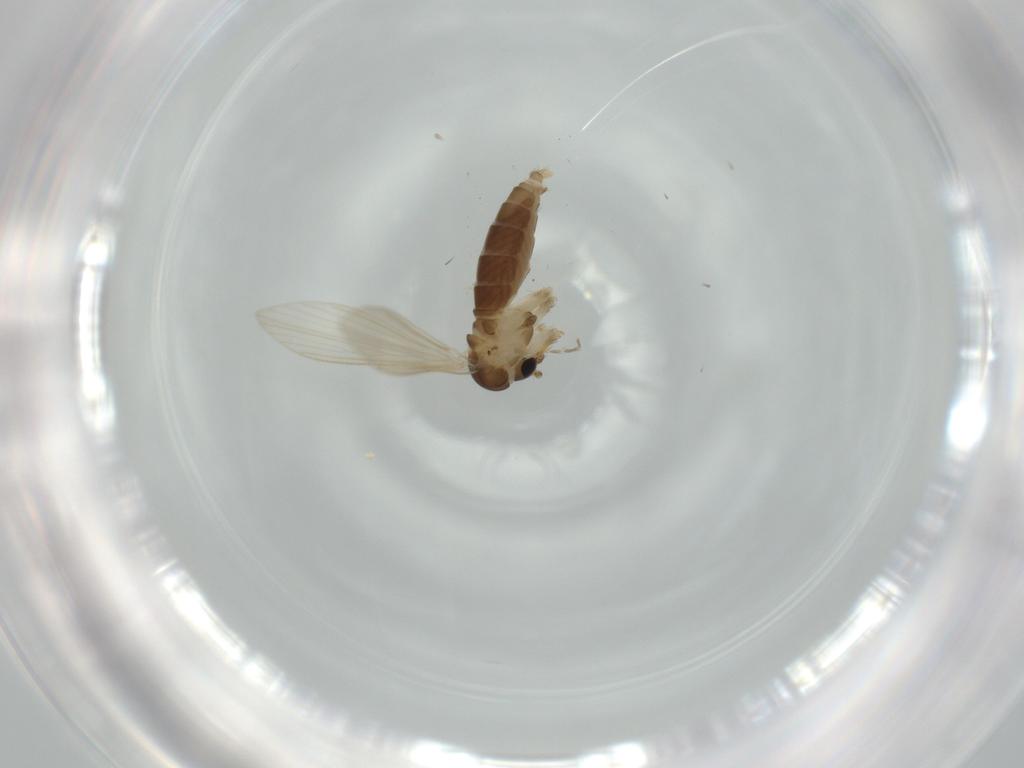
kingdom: Animalia
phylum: Arthropoda
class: Insecta
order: Diptera
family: Psychodidae
